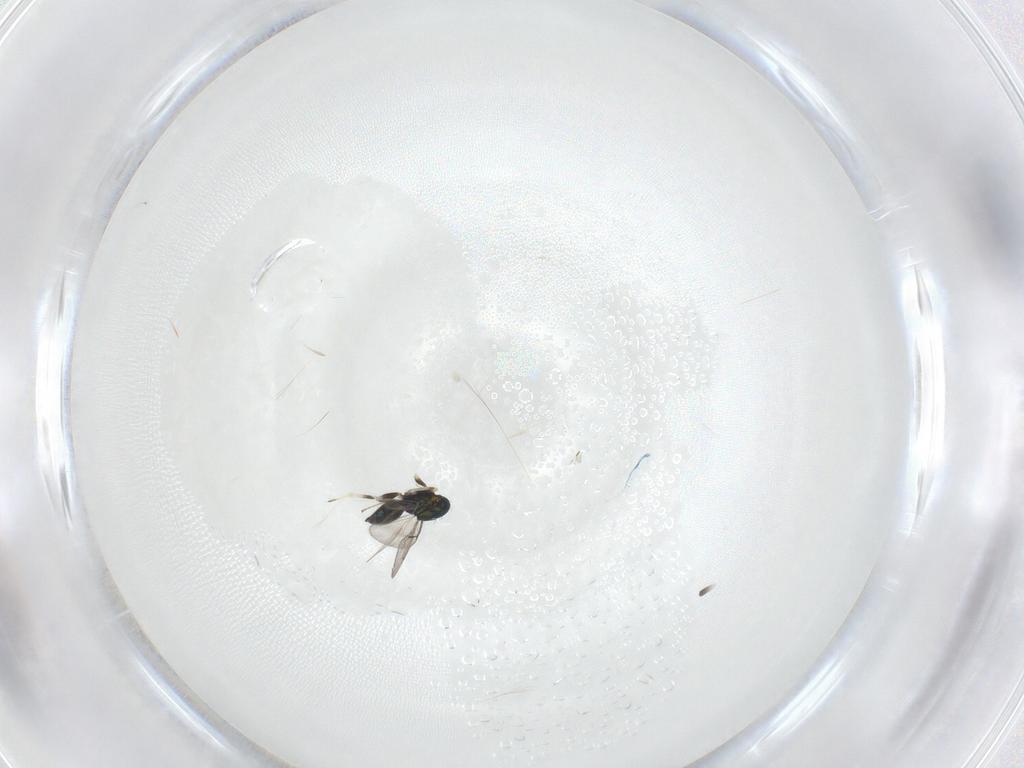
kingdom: Animalia
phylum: Arthropoda
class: Insecta
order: Hymenoptera
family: Eulophidae
